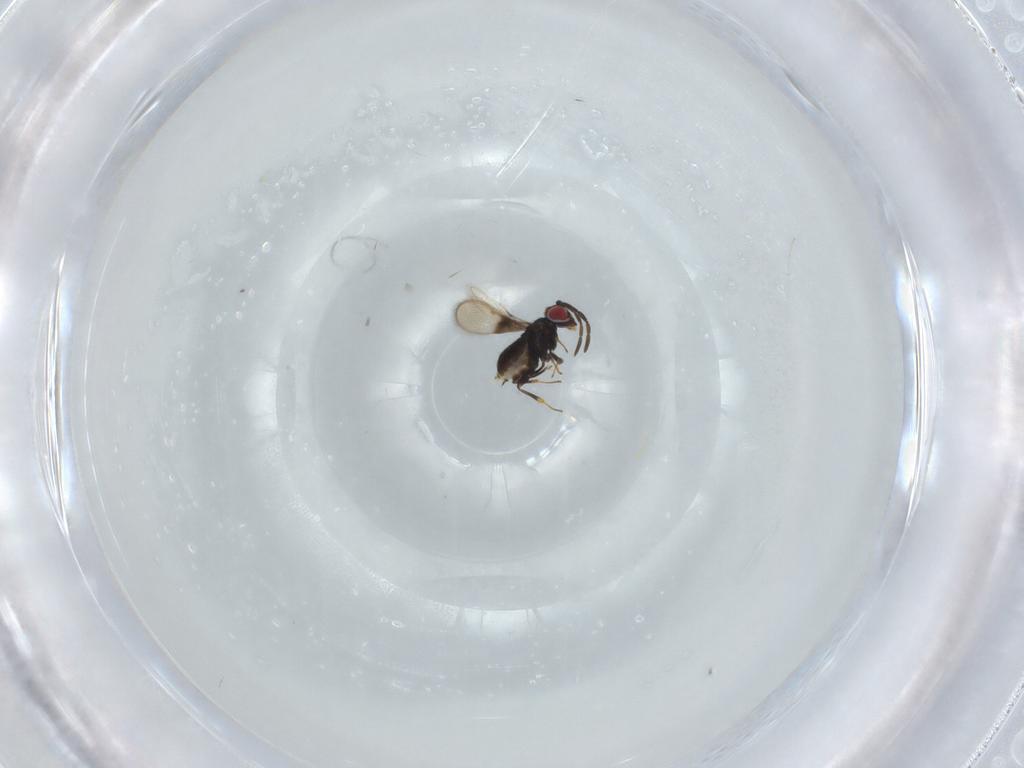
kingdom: Animalia
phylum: Arthropoda
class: Insecta
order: Hymenoptera
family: Azotidae
